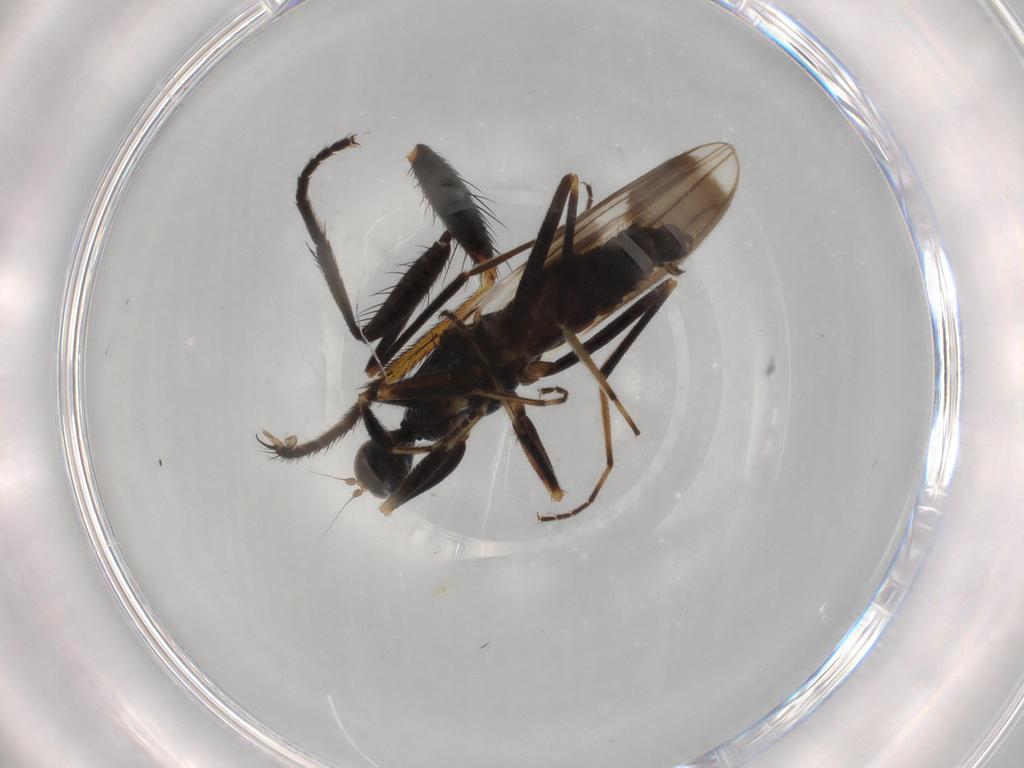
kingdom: Animalia
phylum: Arthropoda
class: Insecta
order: Diptera
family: Hybotidae
